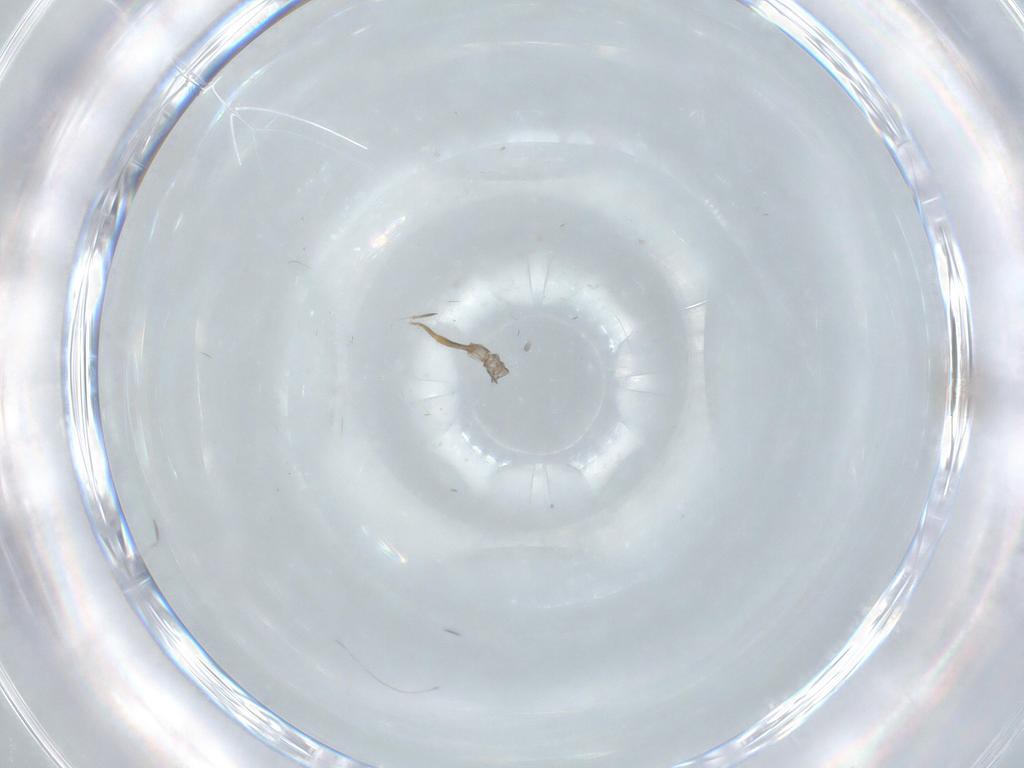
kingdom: Animalia
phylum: Arthropoda
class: Insecta
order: Diptera
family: Cecidomyiidae
